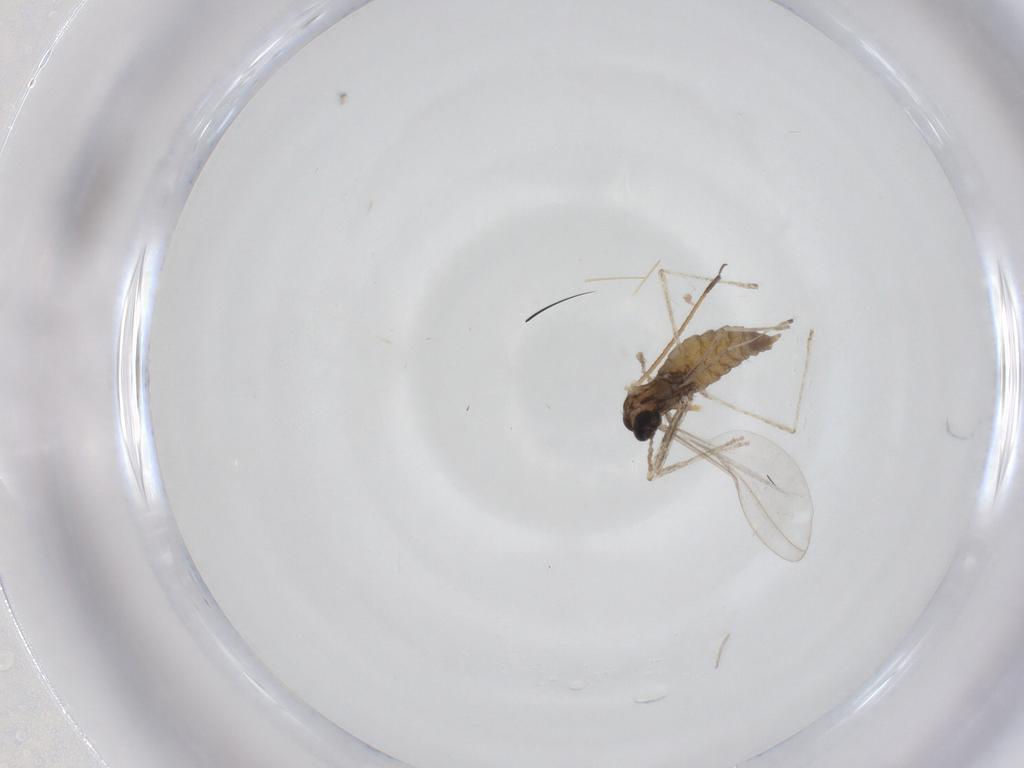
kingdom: Animalia
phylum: Arthropoda
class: Insecta
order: Diptera
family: Cecidomyiidae
